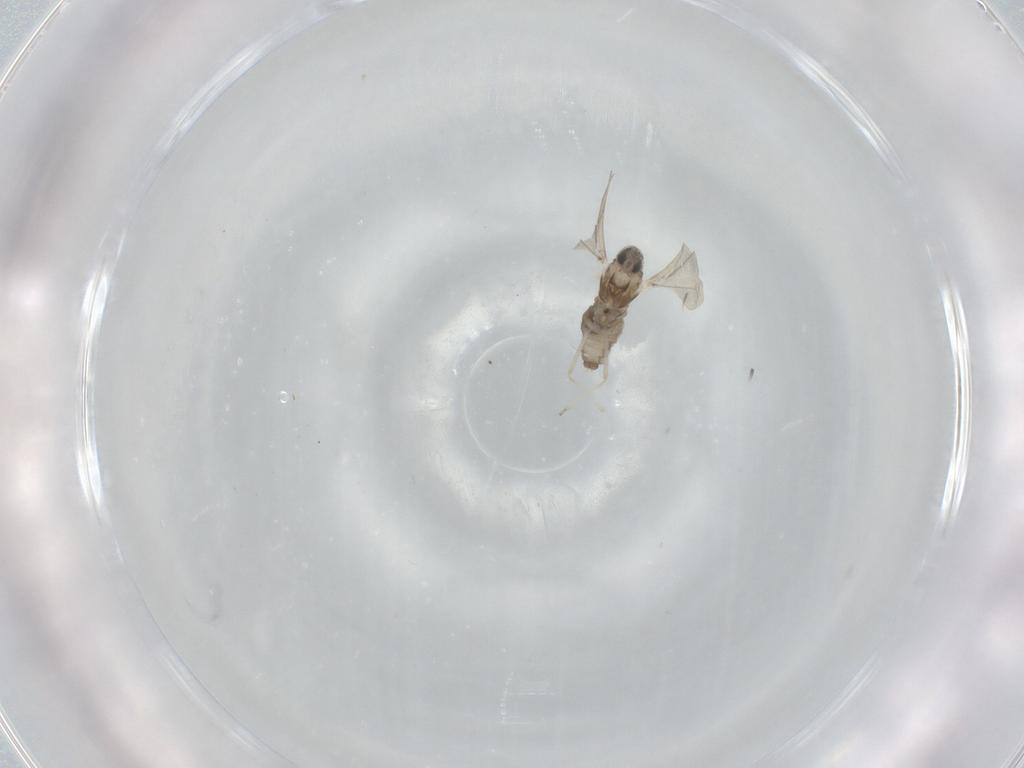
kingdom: Animalia
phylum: Arthropoda
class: Insecta
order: Diptera
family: Cecidomyiidae
